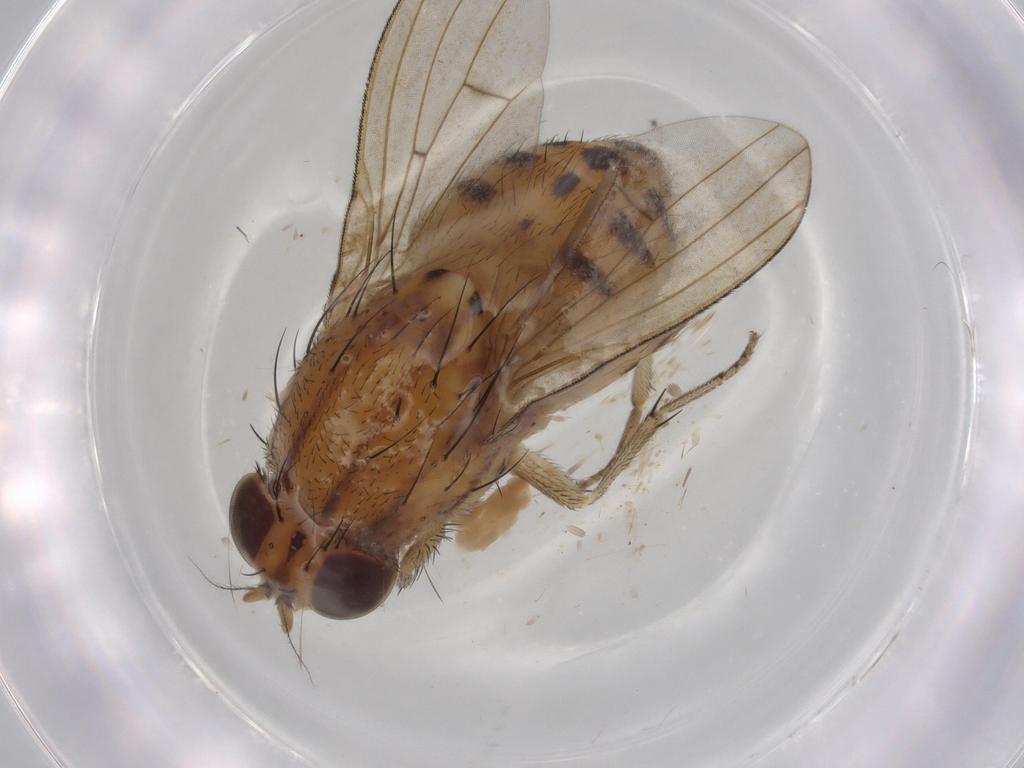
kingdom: Animalia
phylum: Arthropoda
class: Insecta
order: Diptera
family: Lauxaniidae
